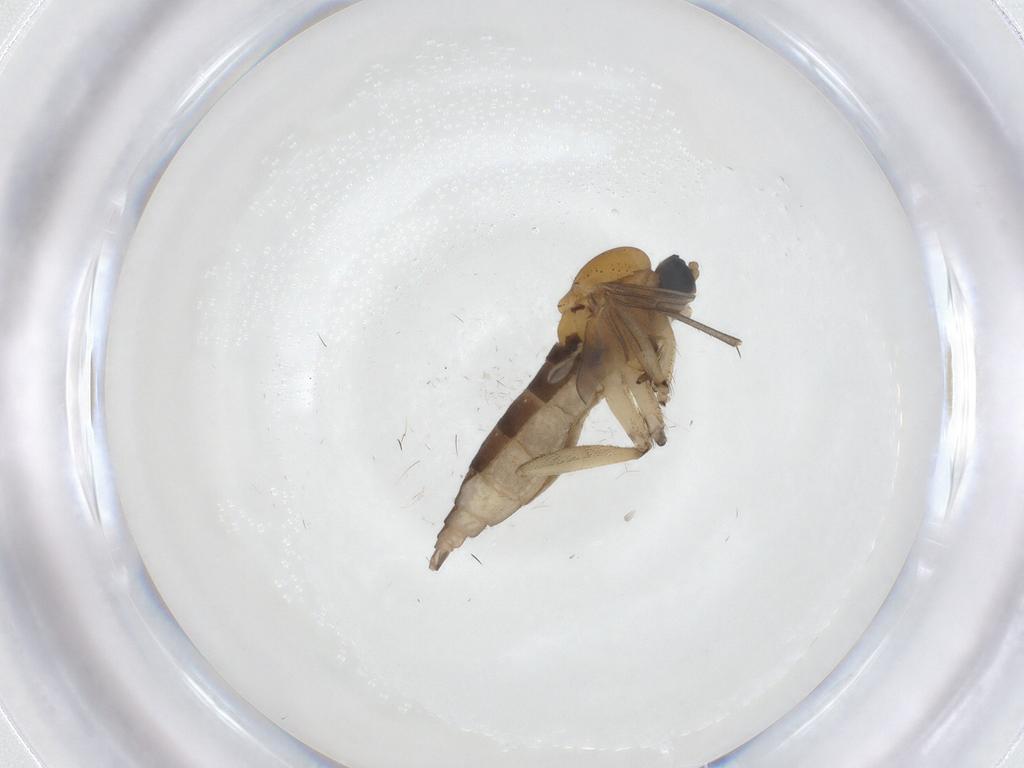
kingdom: Animalia
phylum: Arthropoda
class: Insecta
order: Diptera
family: Sciaridae
